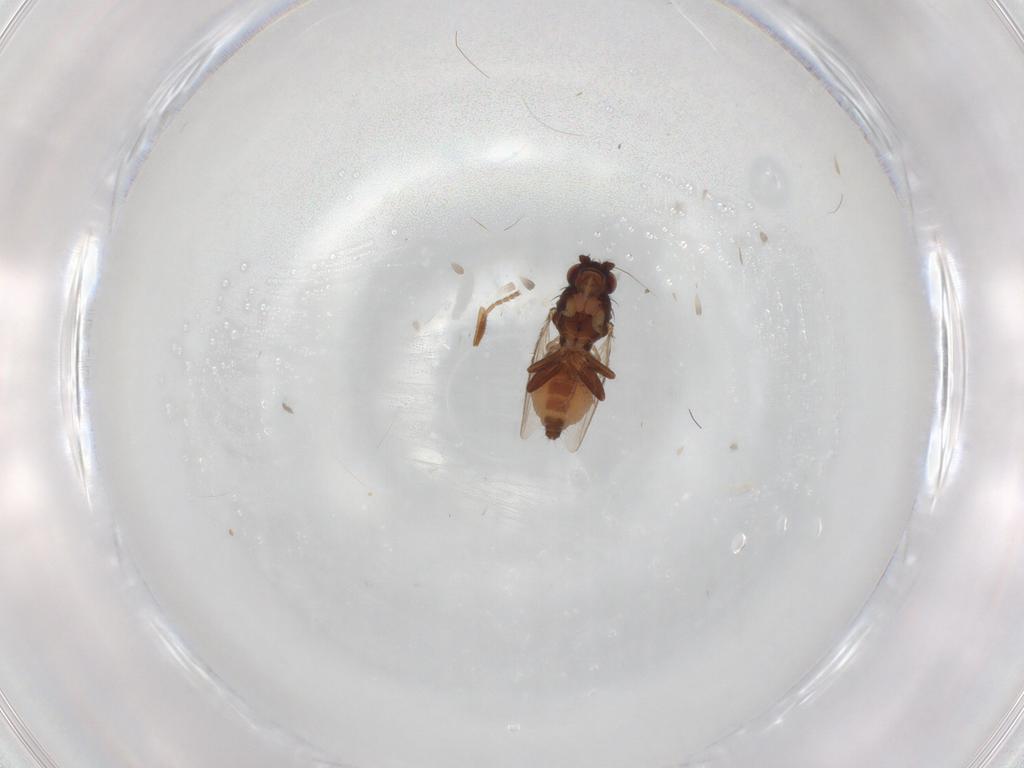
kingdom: Animalia
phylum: Arthropoda
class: Insecta
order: Diptera
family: Sphaeroceridae
